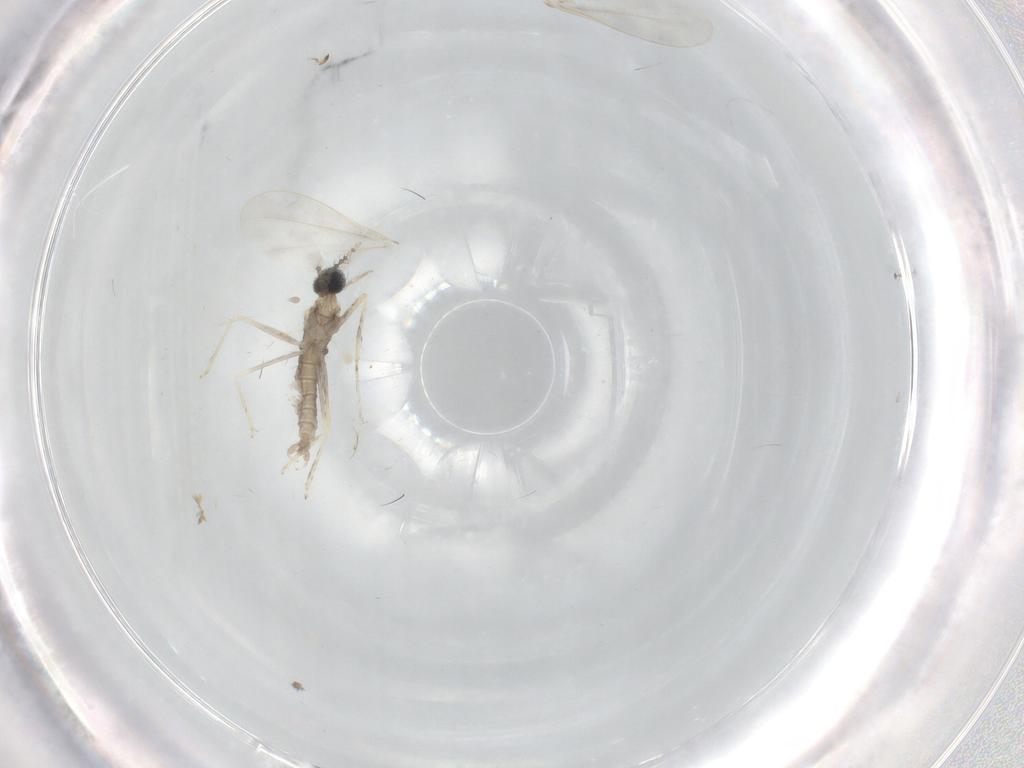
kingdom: Animalia
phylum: Arthropoda
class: Insecta
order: Diptera
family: Cecidomyiidae
